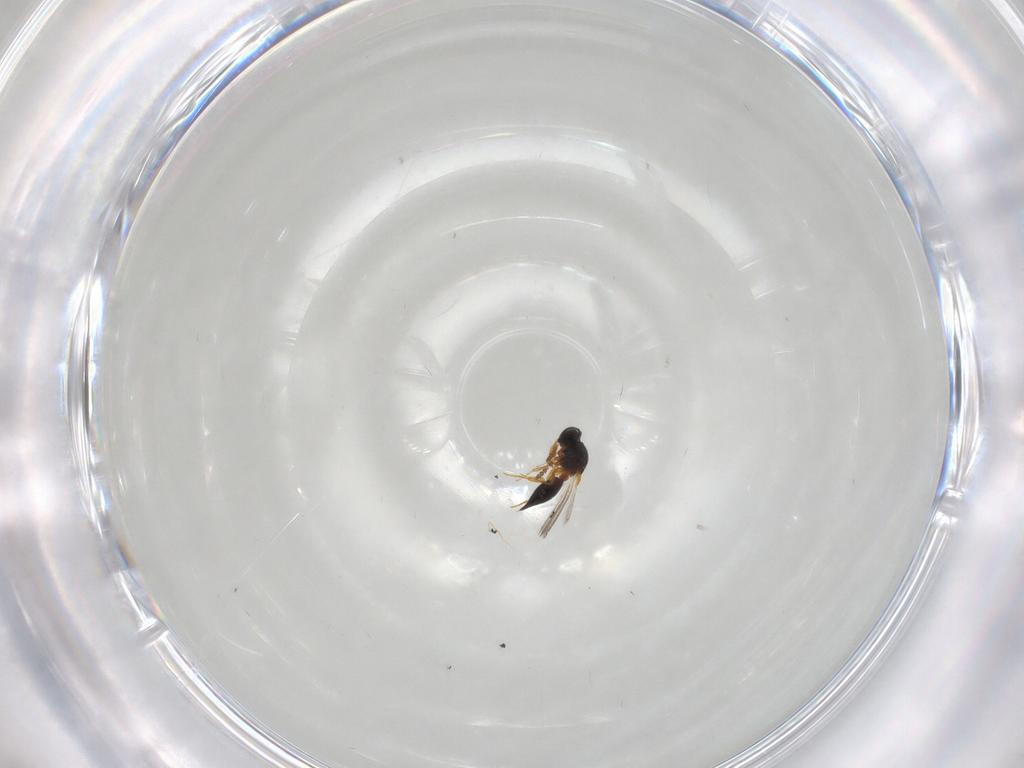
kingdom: Animalia
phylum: Arthropoda
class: Insecta
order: Hymenoptera
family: Platygastridae
